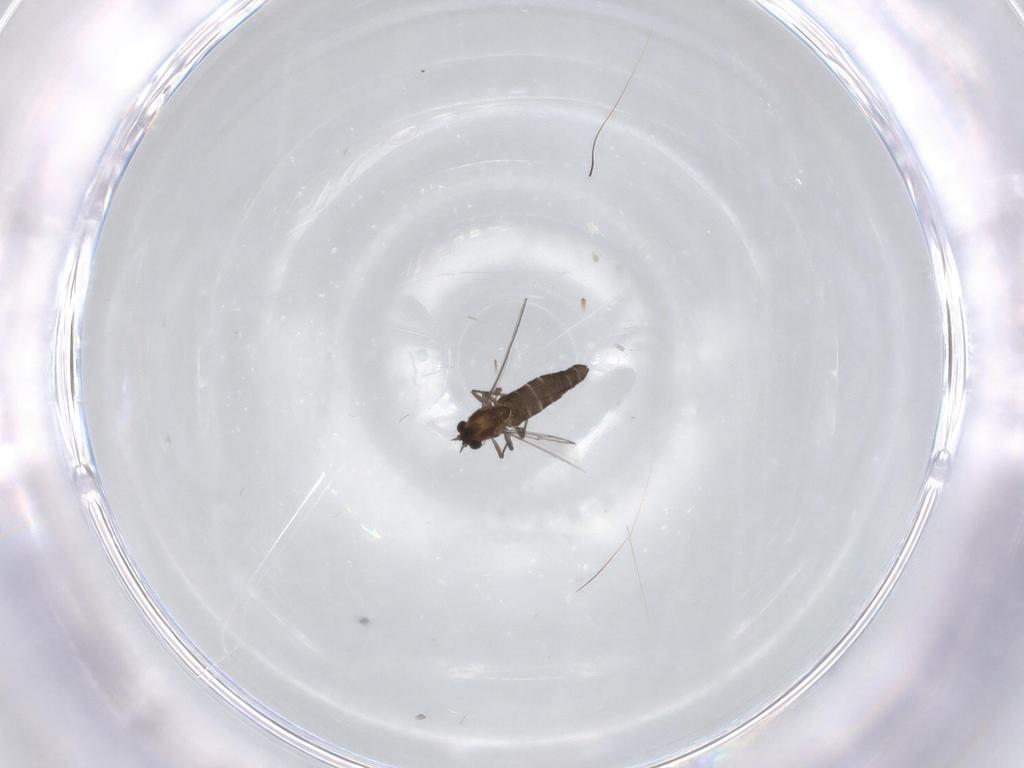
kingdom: Animalia
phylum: Arthropoda
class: Insecta
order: Diptera
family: Chironomidae
